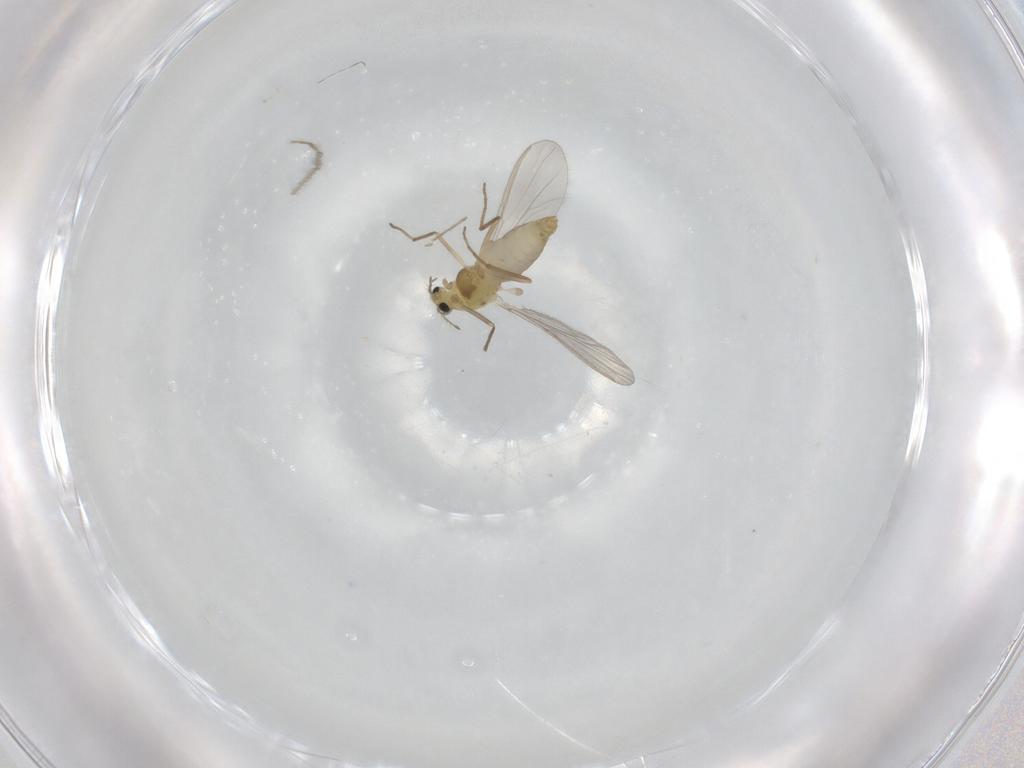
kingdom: Animalia
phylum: Arthropoda
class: Insecta
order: Diptera
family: Chironomidae
